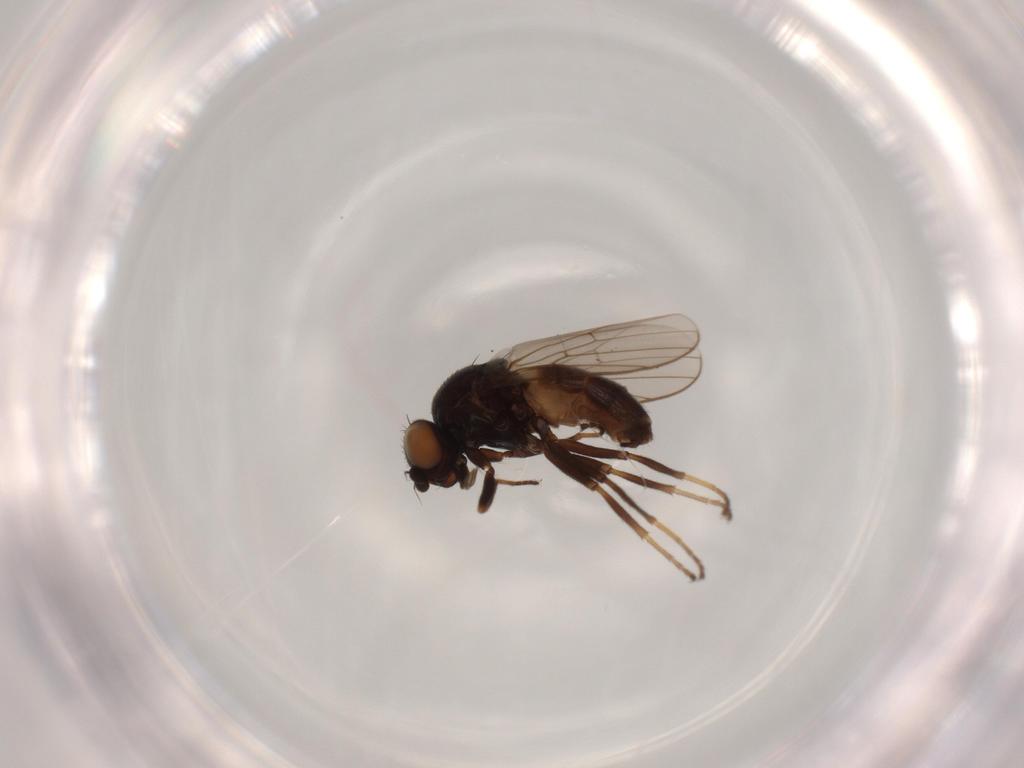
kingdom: Animalia
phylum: Arthropoda
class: Insecta
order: Diptera
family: Chloropidae
